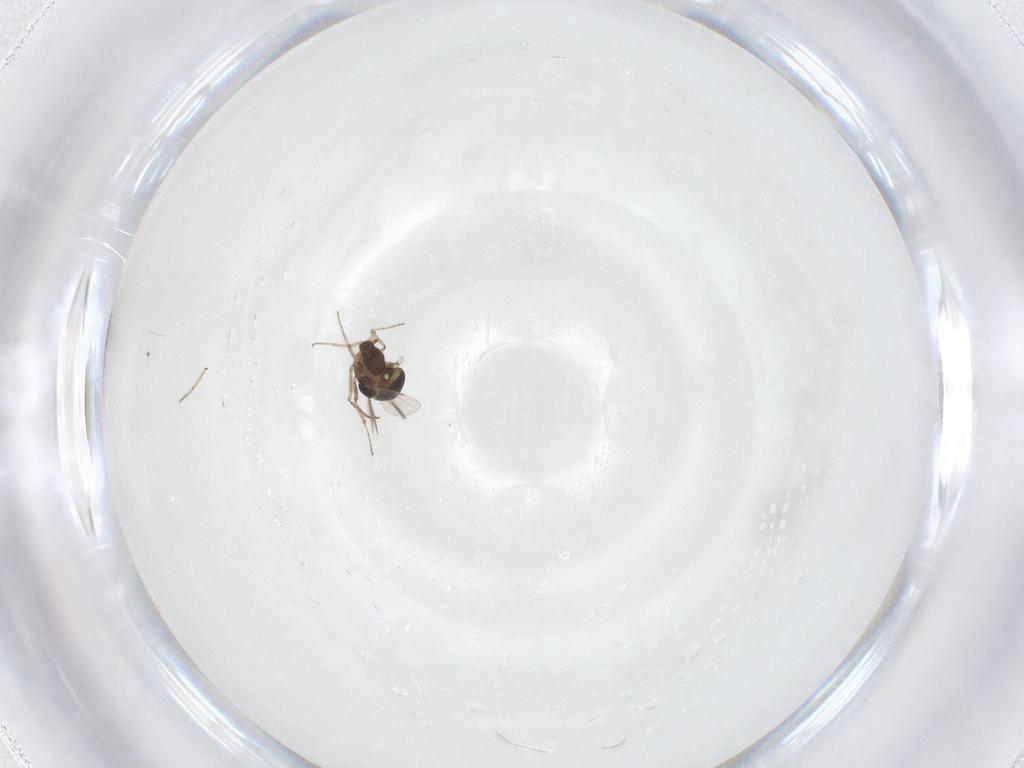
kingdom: Animalia
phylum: Arthropoda
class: Insecta
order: Diptera
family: Ceratopogonidae
